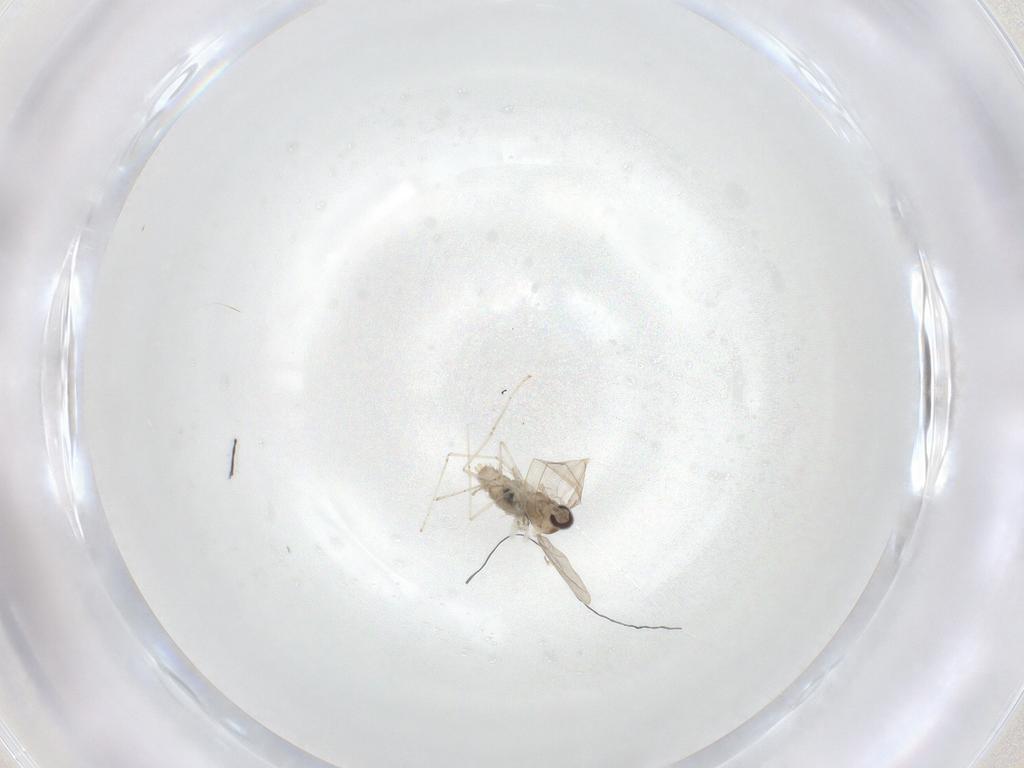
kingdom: Animalia
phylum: Arthropoda
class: Insecta
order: Diptera
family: Cecidomyiidae
